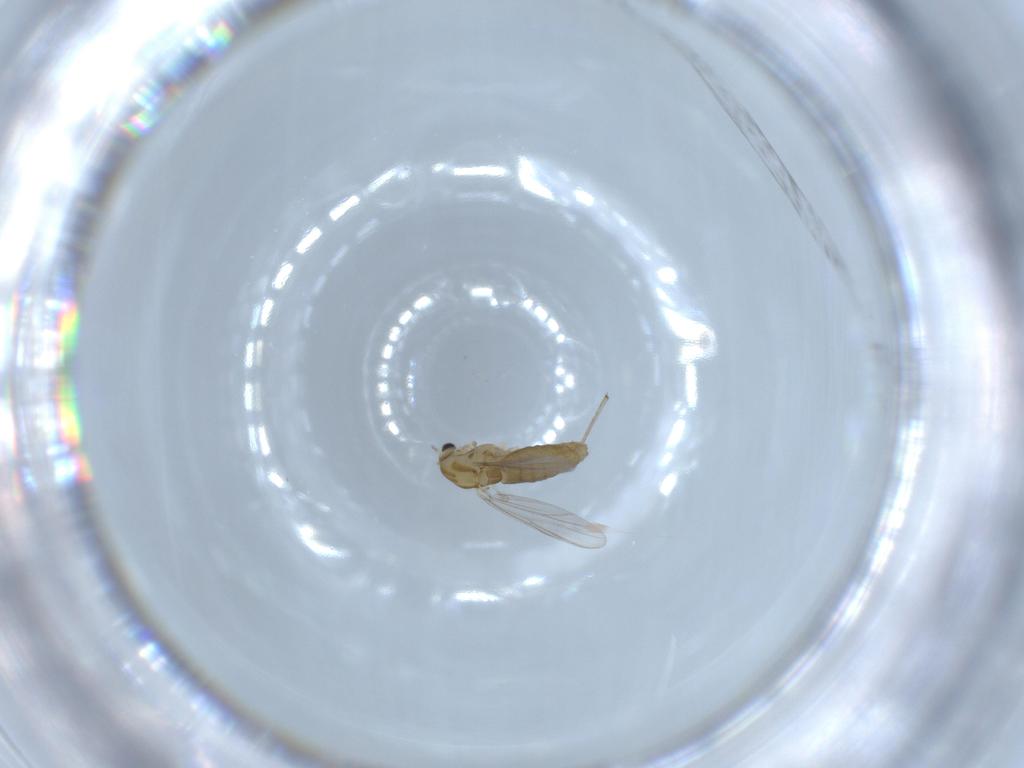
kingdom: Animalia
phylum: Arthropoda
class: Insecta
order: Diptera
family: Chironomidae
